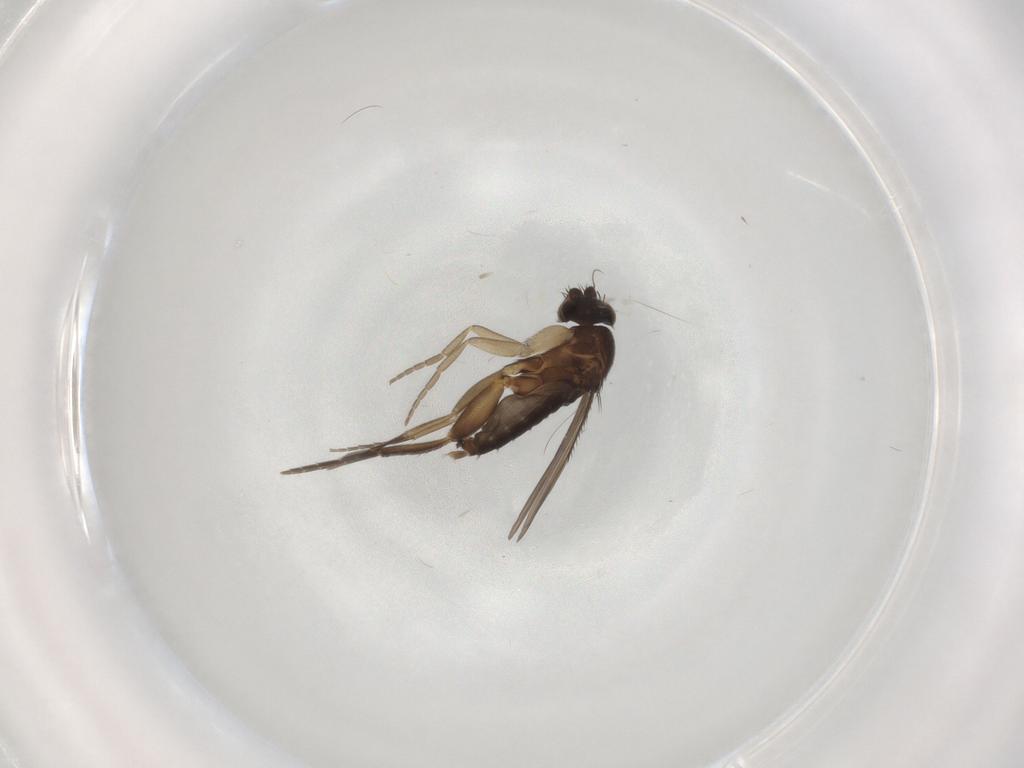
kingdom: Animalia
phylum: Arthropoda
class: Insecta
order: Diptera
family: Phoridae
